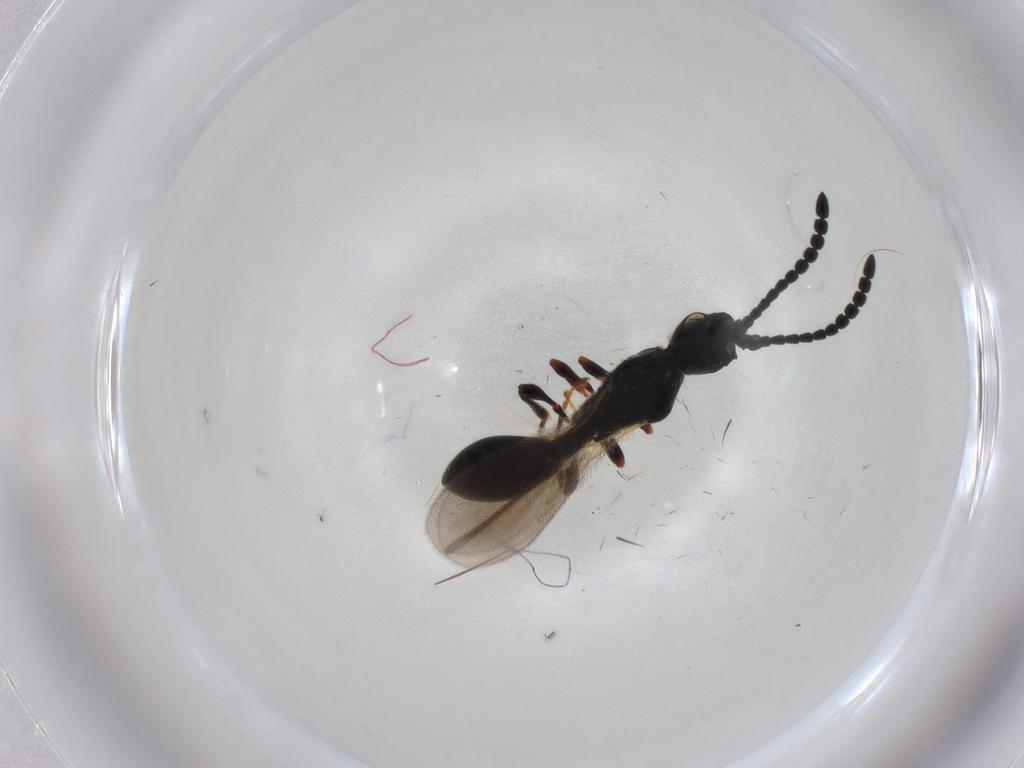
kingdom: Animalia
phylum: Arthropoda
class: Insecta
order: Hymenoptera
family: Diapriidae
